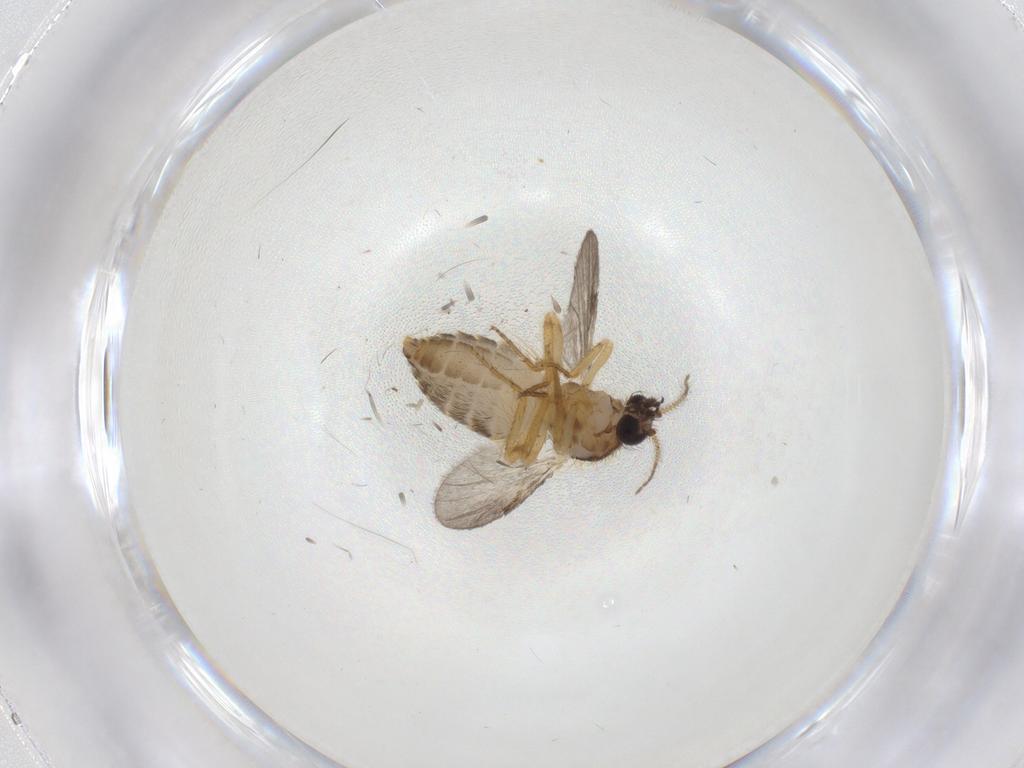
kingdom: Animalia
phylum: Arthropoda
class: Insecta
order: Diptera
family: Ceratopogonidae
